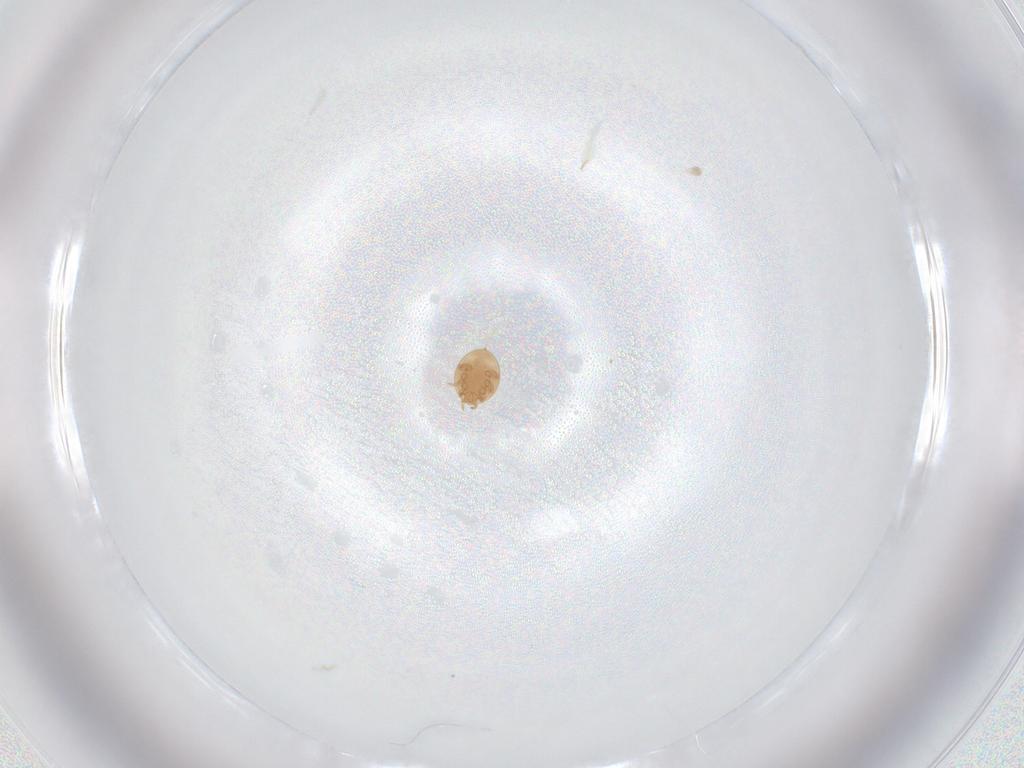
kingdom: Animalia
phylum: Arthropoda
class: Arachnida
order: Mesostigmata
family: Trematuridae
